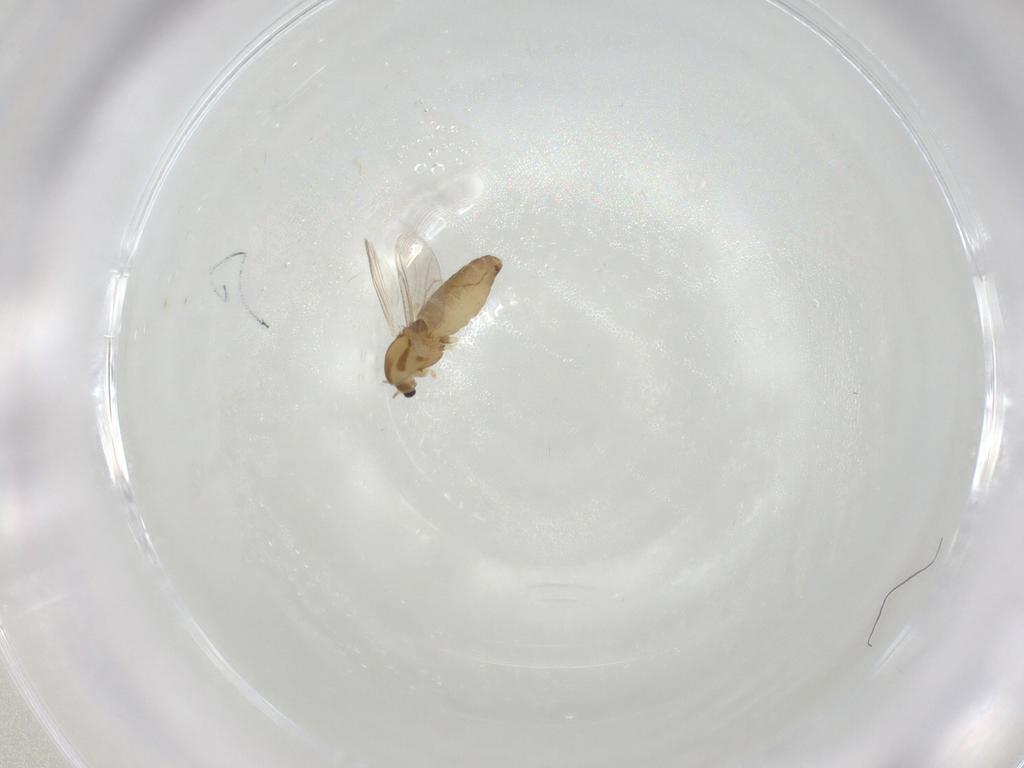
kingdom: Animalia
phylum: Arthropoda
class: Insecta
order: Diptera
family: Chironomidae
